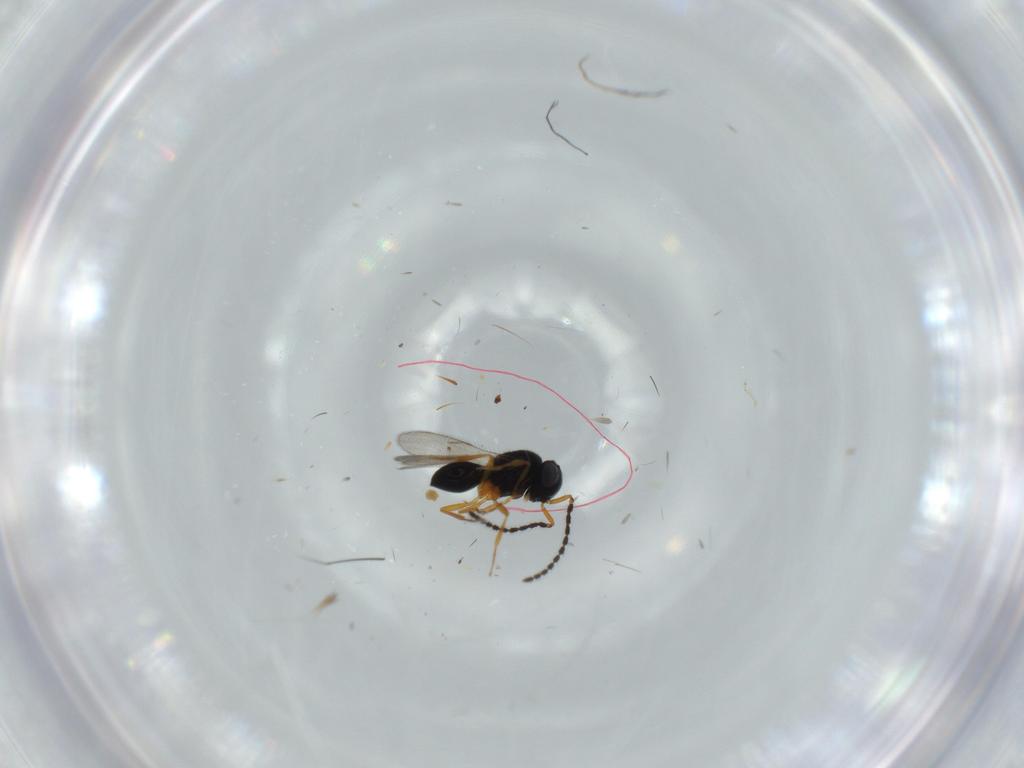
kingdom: Animalia
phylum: Arthropoda
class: Insecta
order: Hymenoptera
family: Scelionidae
